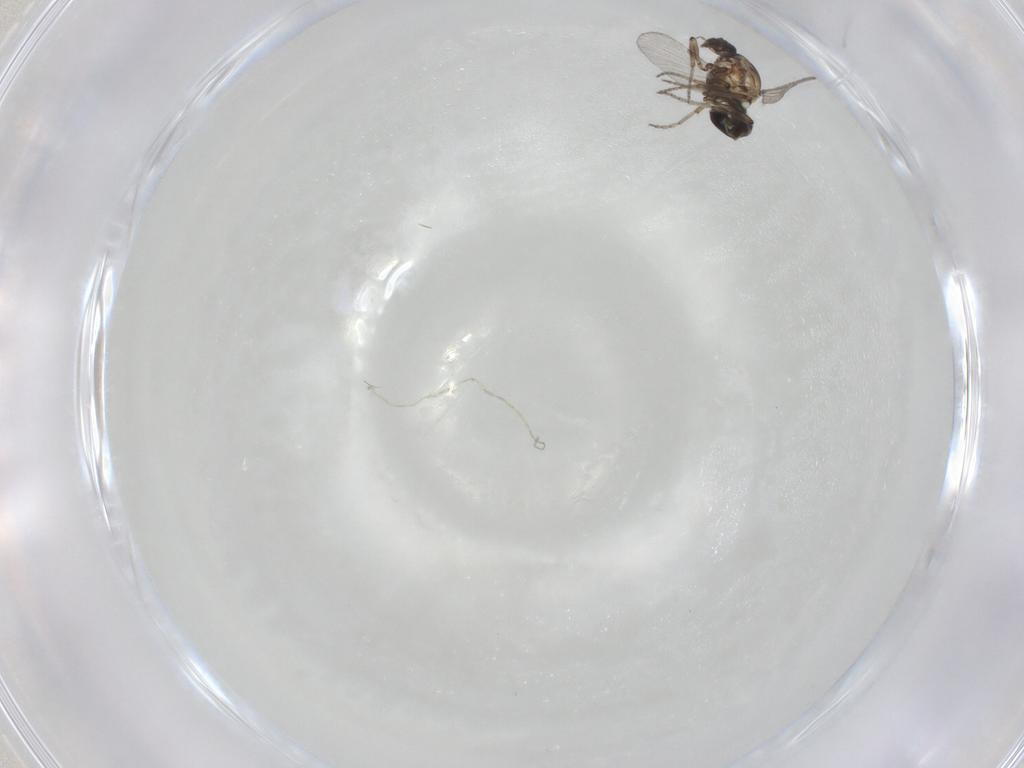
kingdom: Animalia
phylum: Arthropoda
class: Insecta
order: Diptera
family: Ceratopogonidae
